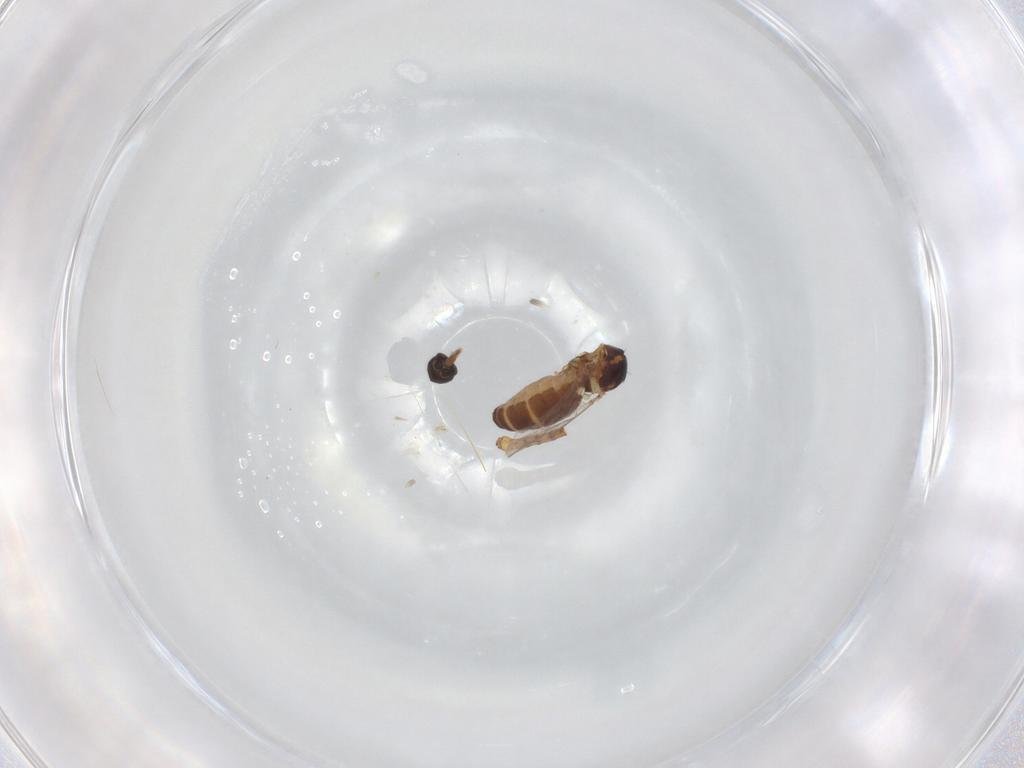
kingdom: Animalia
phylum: Arthropoda
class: Insecta
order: Diptera
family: Ceratopogonidae
